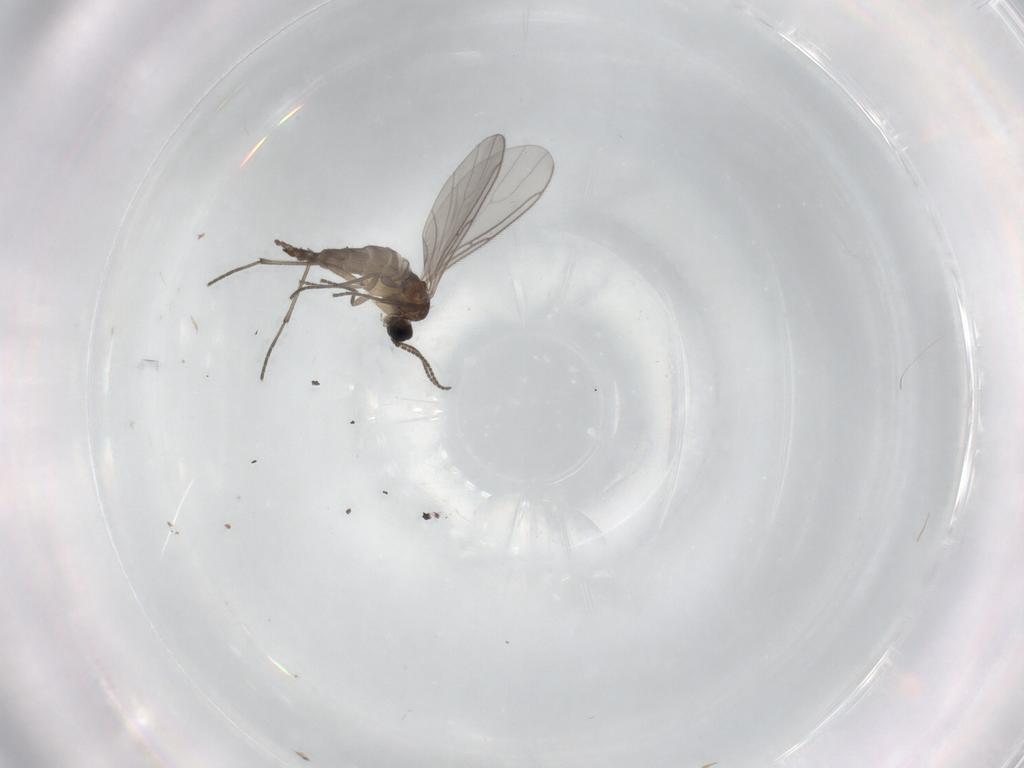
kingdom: Animalia
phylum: Arthropoda
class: Insecta
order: Diptera
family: Sciaridae
